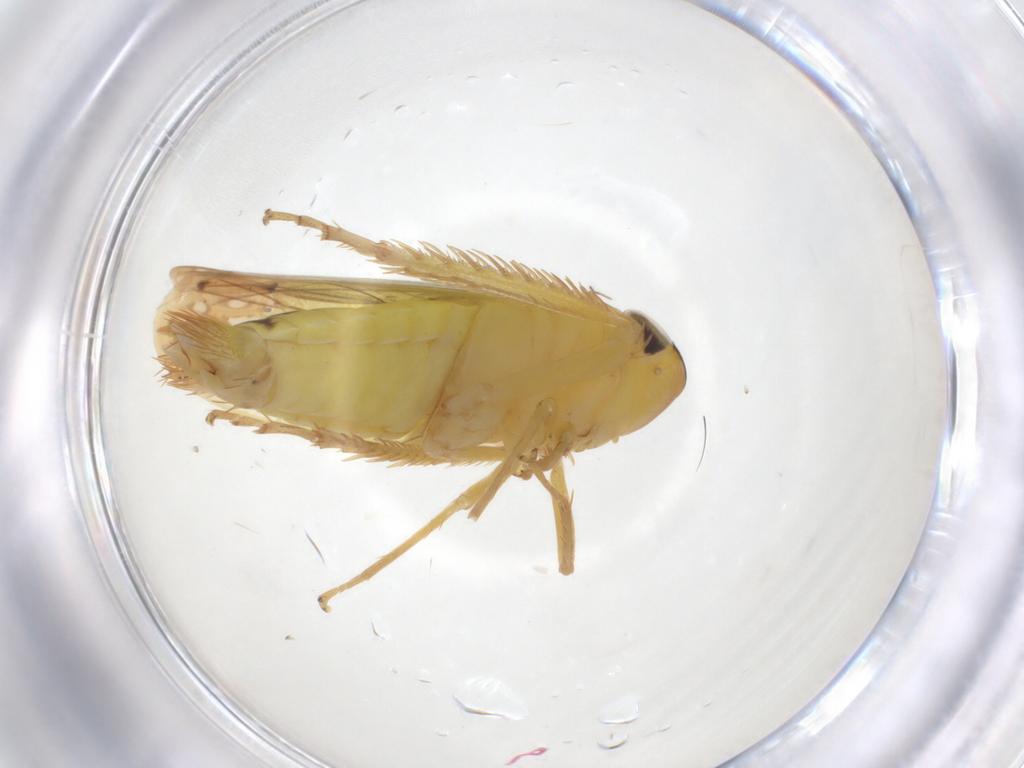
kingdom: Animalia
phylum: Arthropoda
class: Insecta
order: Hemiptera
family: Cicadellidae
